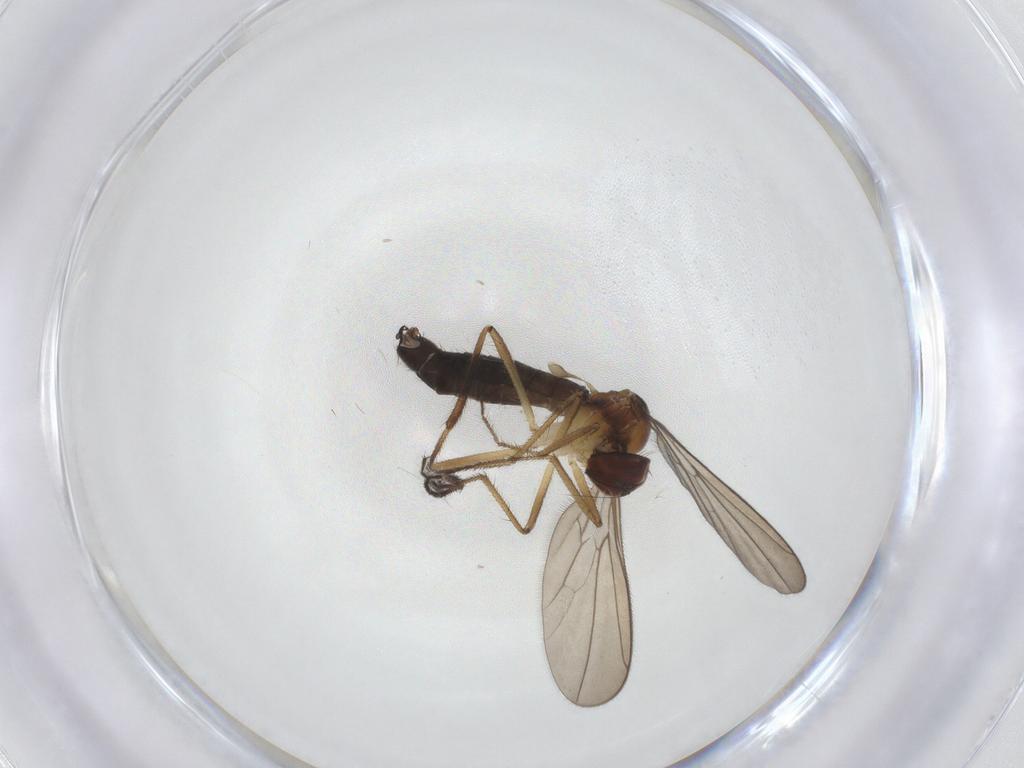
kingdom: Animalia
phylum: Arthropoda
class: Insecta
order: Diptera
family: Hybotidae
